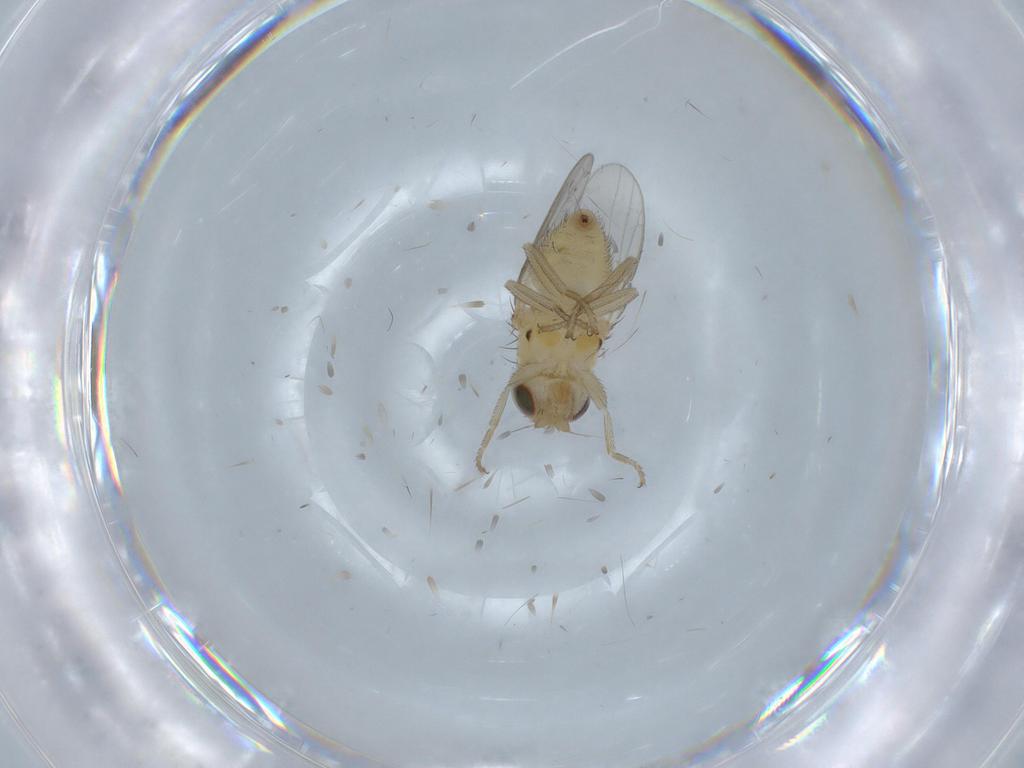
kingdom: Animalia
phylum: Arthropoda
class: Insecta
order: Diptera
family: Chloropidae
